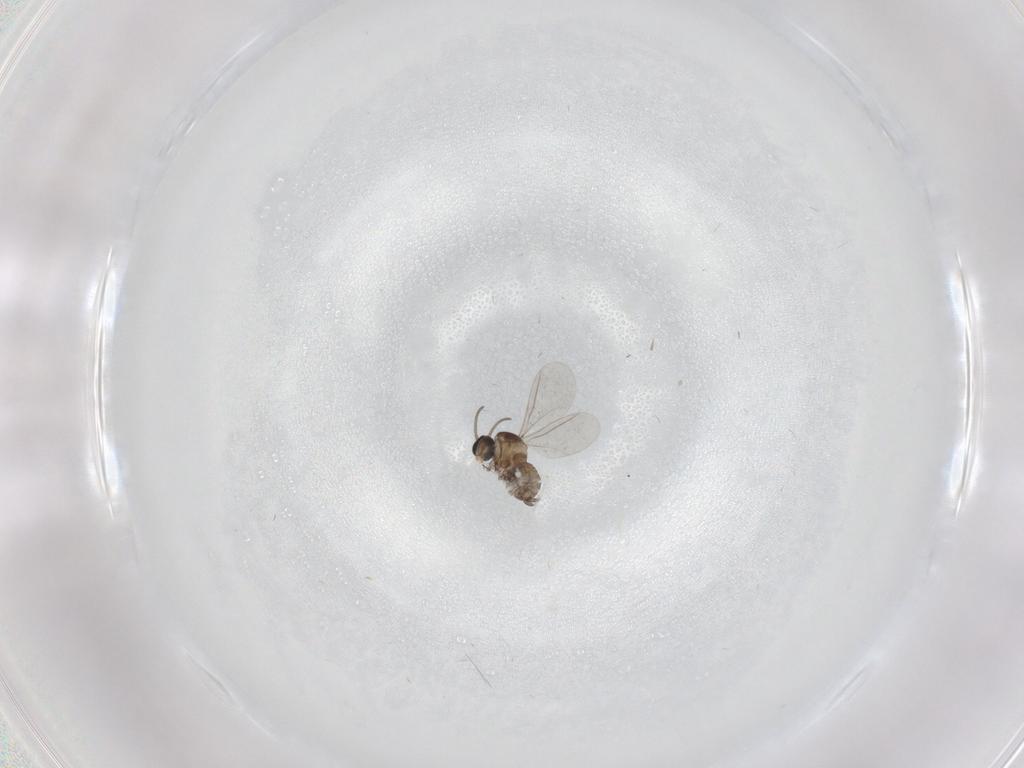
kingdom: Animalia
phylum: Arthropoda
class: Insecta
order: Diptera
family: Cecidomyiidae
